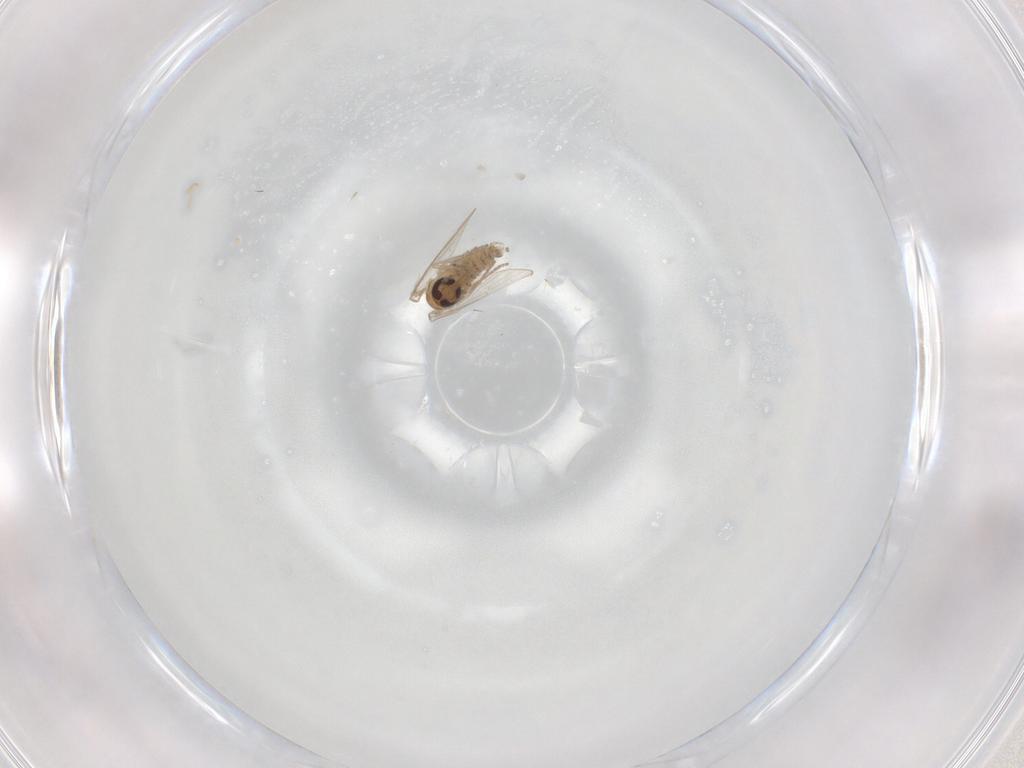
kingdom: Animalia
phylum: Arthropoda
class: Insecta
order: Diptera
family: Psychodidae
